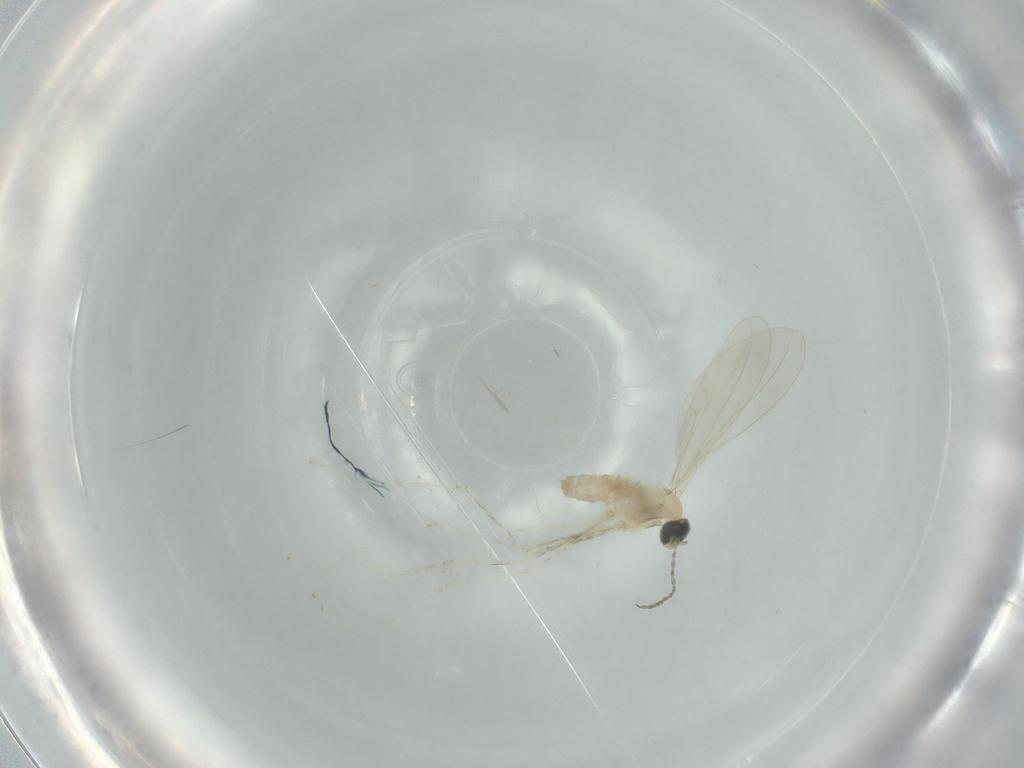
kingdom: Animalia
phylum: Arthropoda
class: Insecta
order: Diptera
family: Cecidomyiidae
